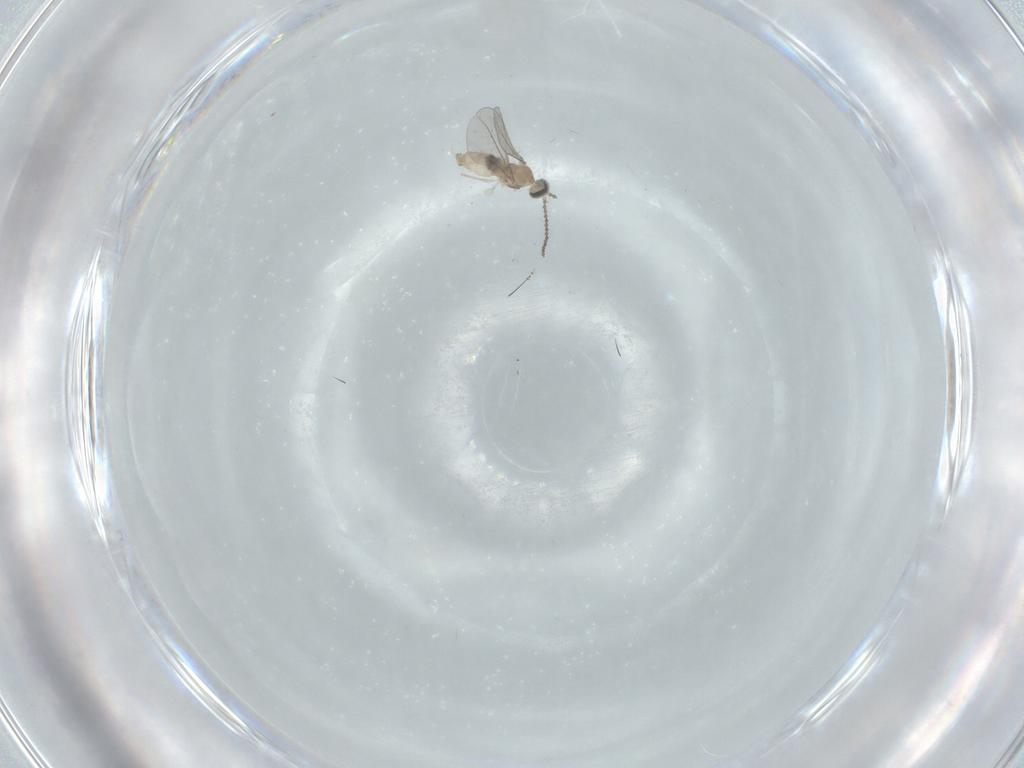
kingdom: Animalia
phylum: Arthropoda
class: Insecta
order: Diptera
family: Cecidomyiidae
